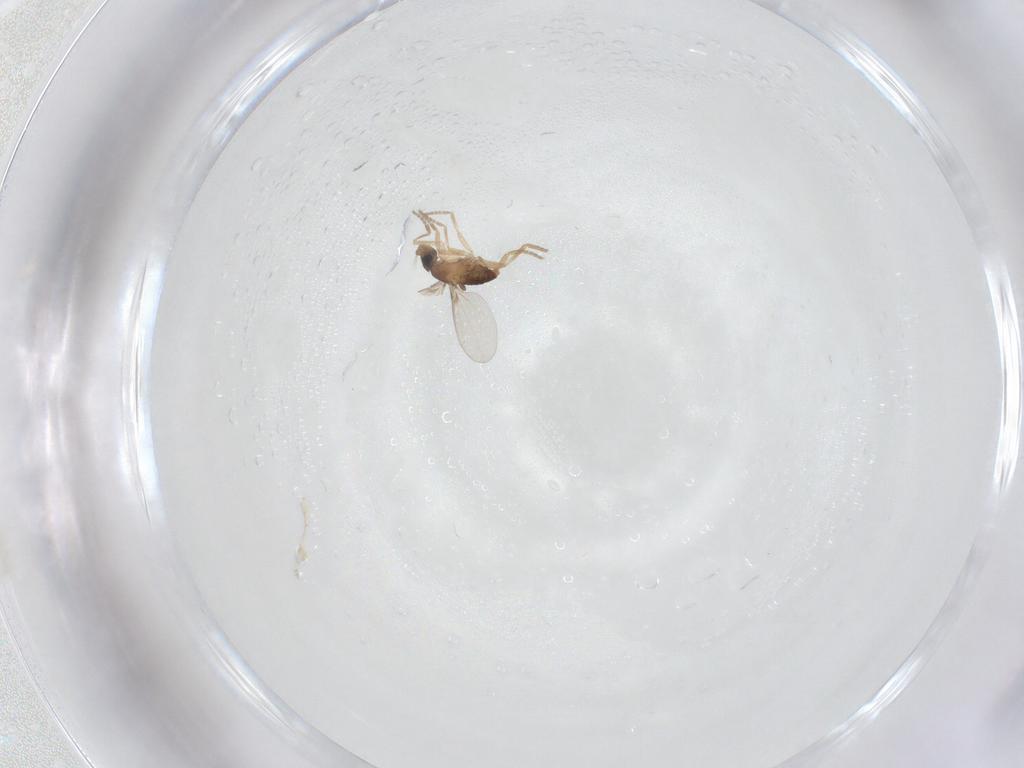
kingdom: Animalia
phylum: Arthropoda
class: Insecta
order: Diptera
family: Phoridae
